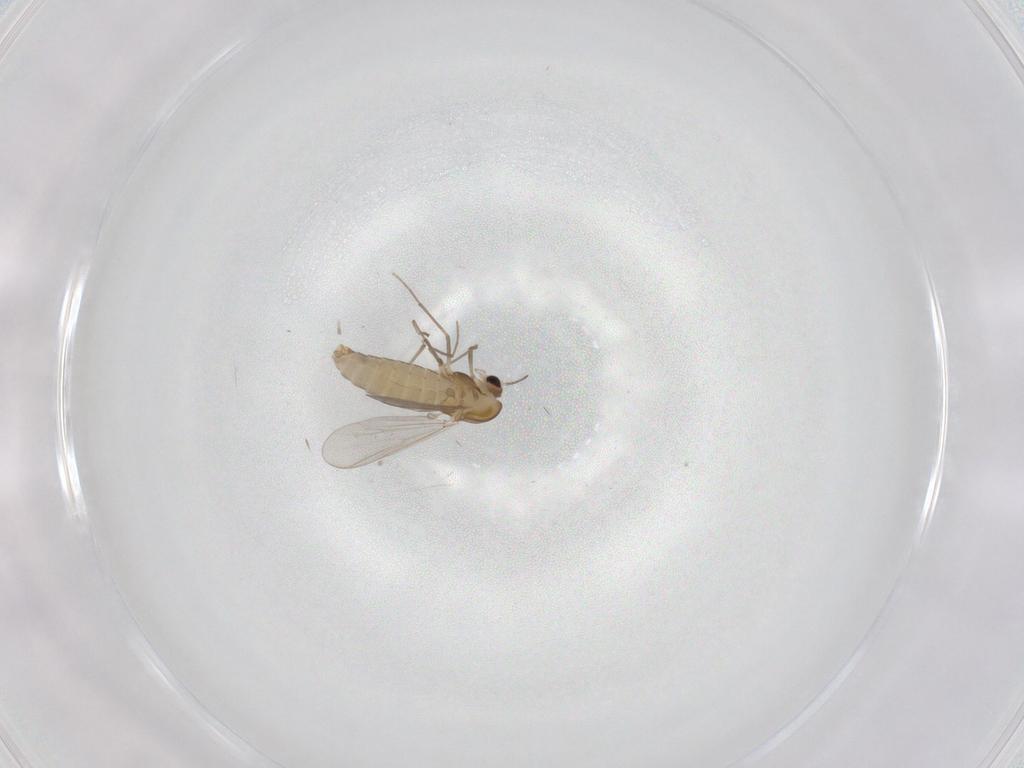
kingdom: Animalia
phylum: Arthropoda
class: Insecta
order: Diptera
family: Chironomidae
